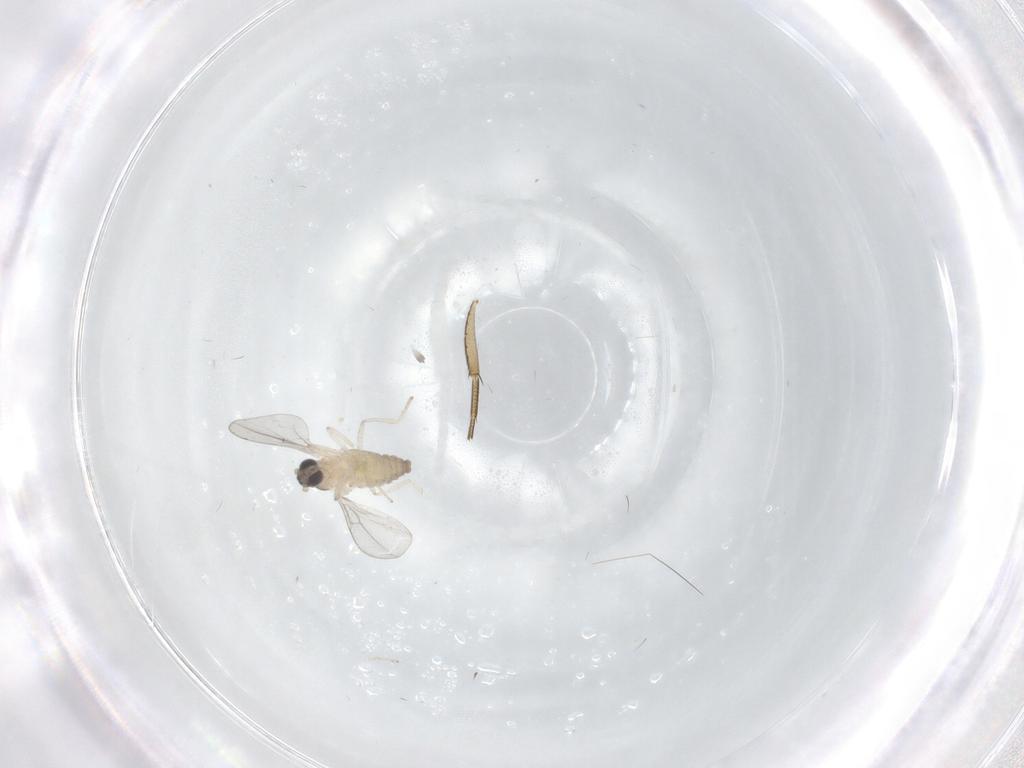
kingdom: Animalia
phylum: Arthropoda
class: Insecta
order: Diptera
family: Cecidomyiidae
